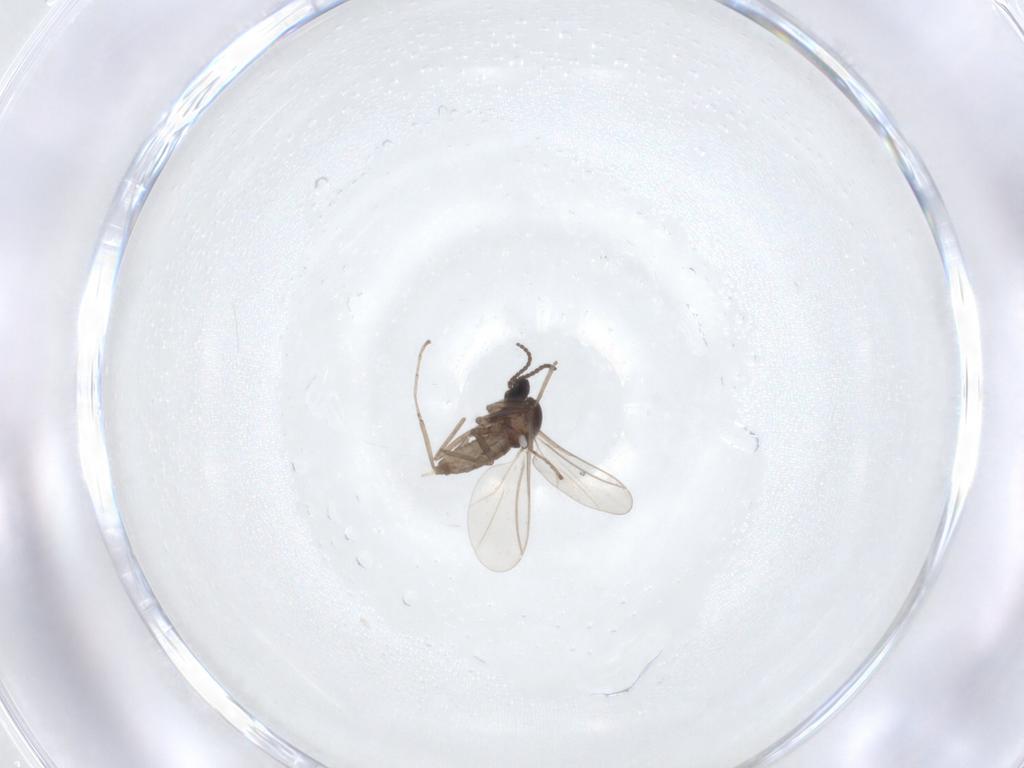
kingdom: Animalia
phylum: Arthropoda
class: Insecta
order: Diptera
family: Cecidomyiidae
